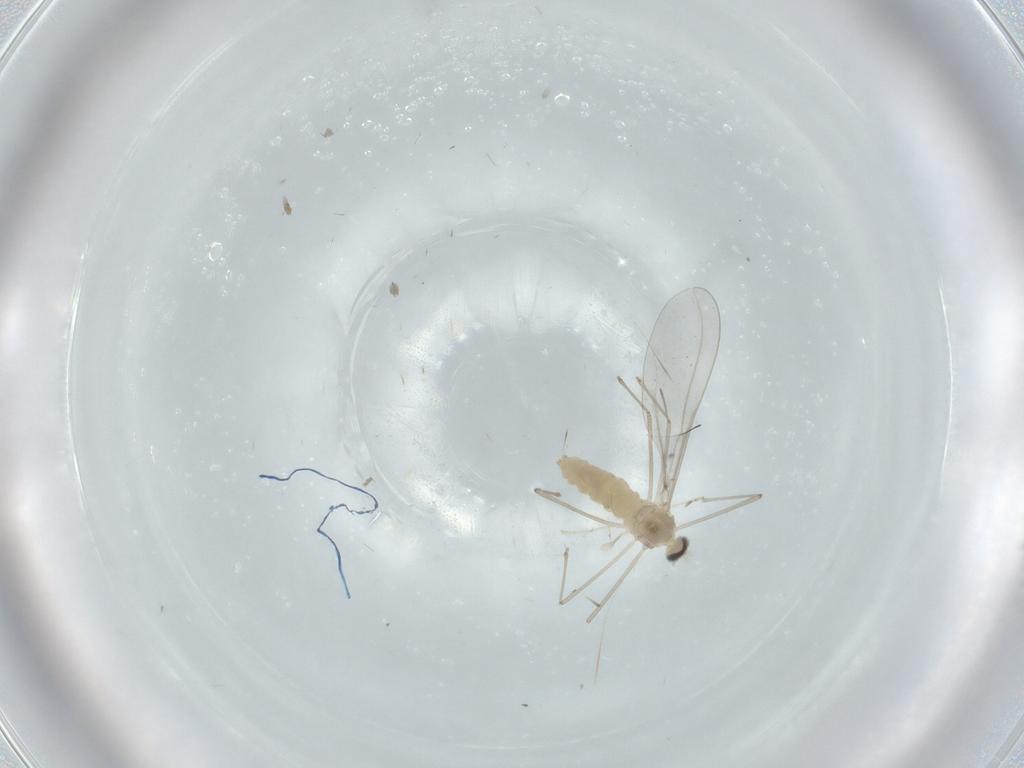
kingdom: Animalia
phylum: Arthropoda
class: Insecta
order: Diptera
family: Cecidomyiidae
